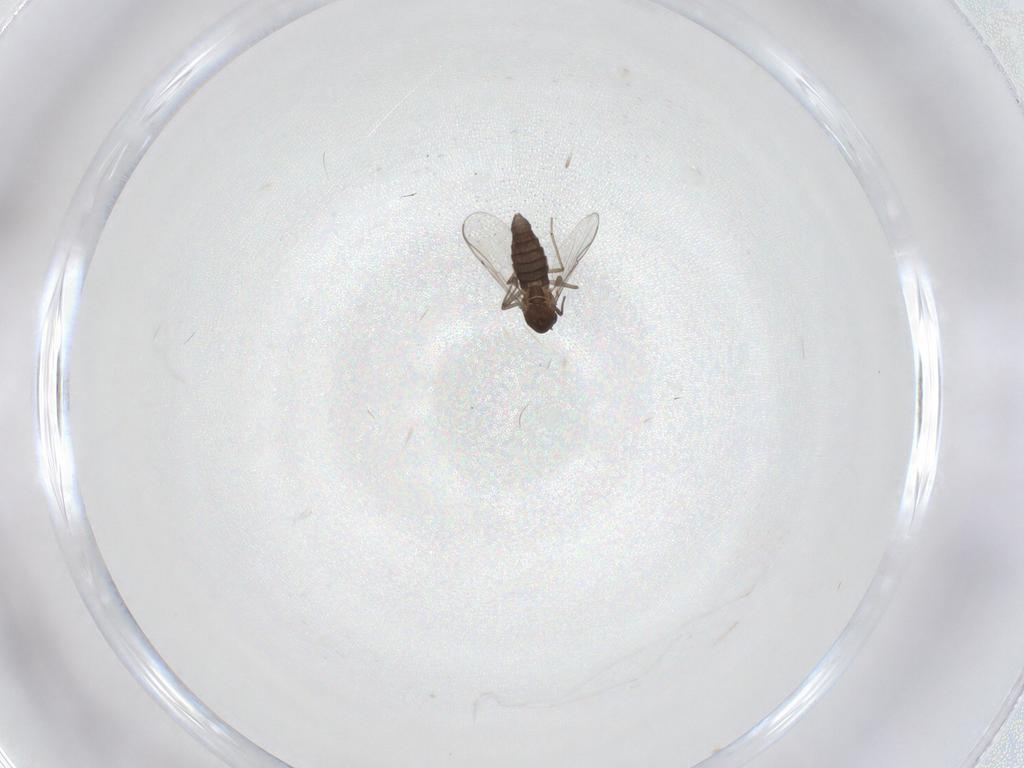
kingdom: Animalia
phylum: Arthropoda
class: Insecta
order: Diptera
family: Chironomidae
